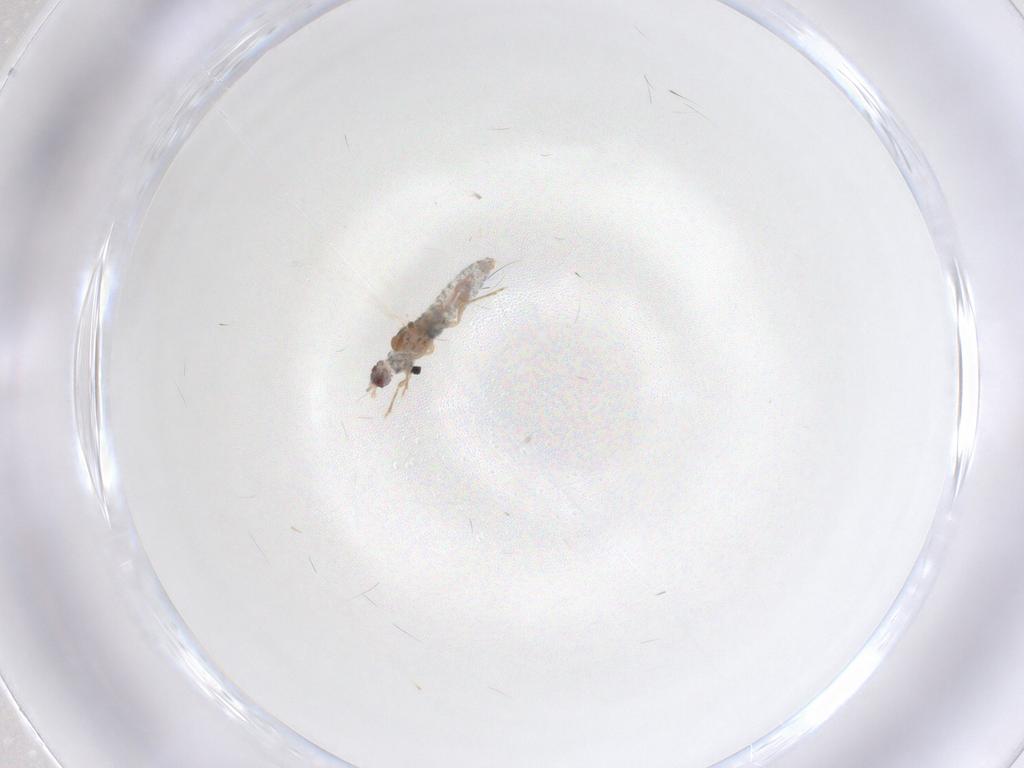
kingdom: Animalia
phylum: Arthropoda
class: Insecta
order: Hemiptera
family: Pseudococcidae
